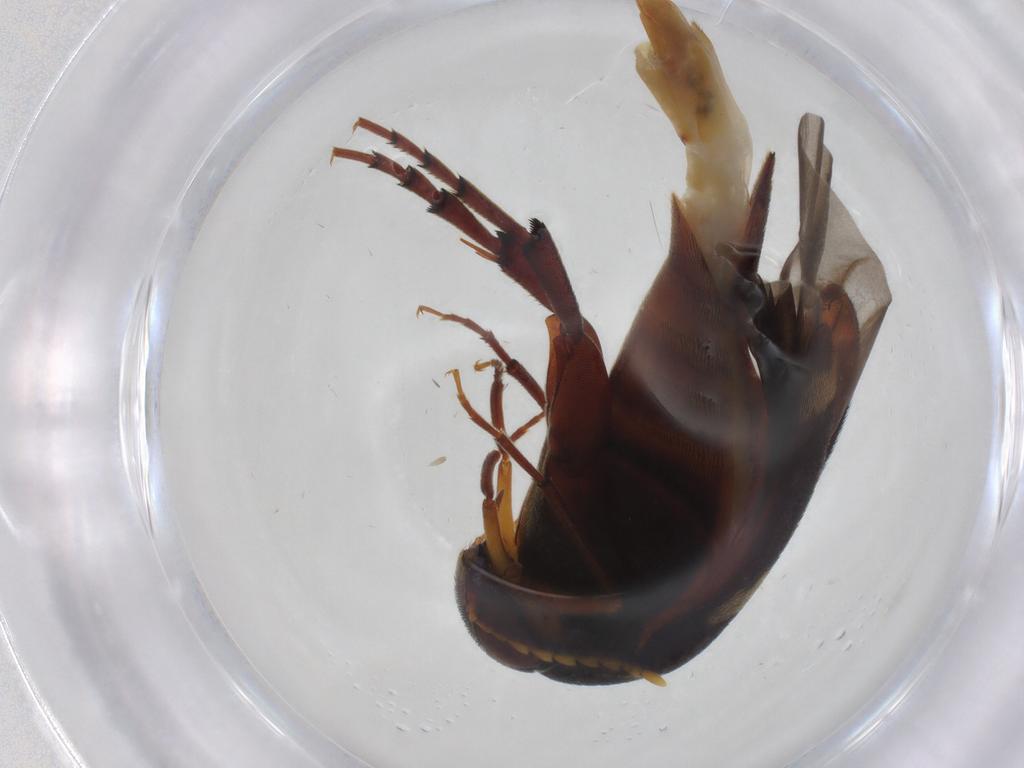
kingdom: Animalia
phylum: Arthropoda
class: Insecta
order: Coleoptera
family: Mordellidae
